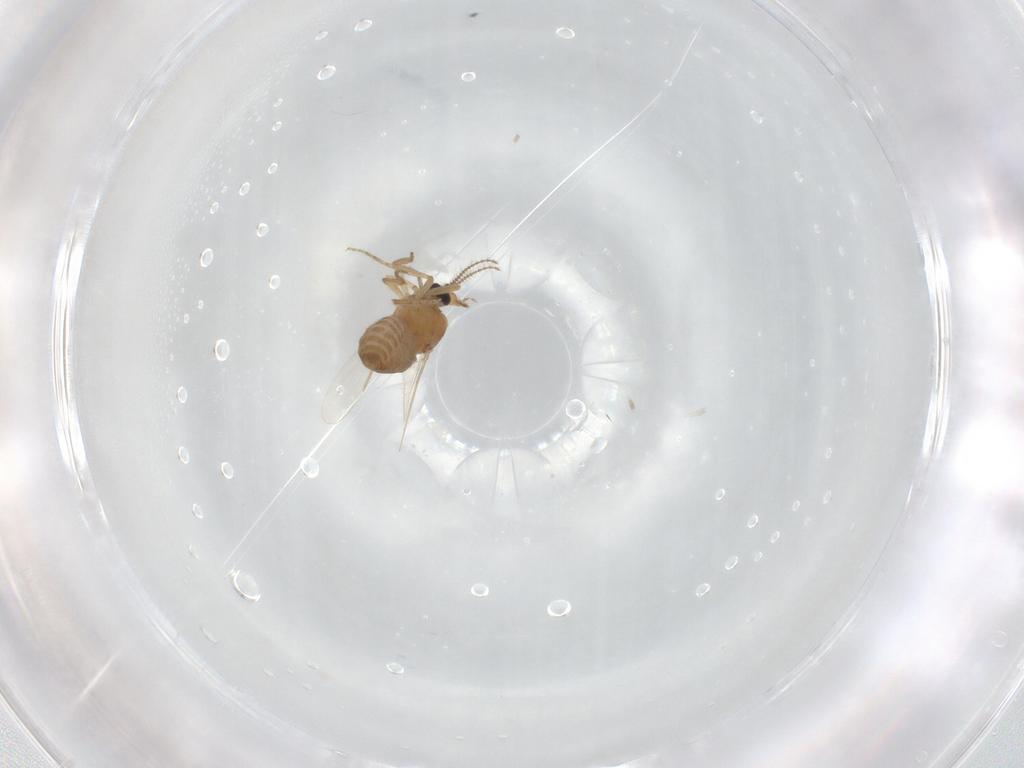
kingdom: Animalia
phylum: Arthropoda
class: Insecta
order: Diptera
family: Ceratopogonidae
